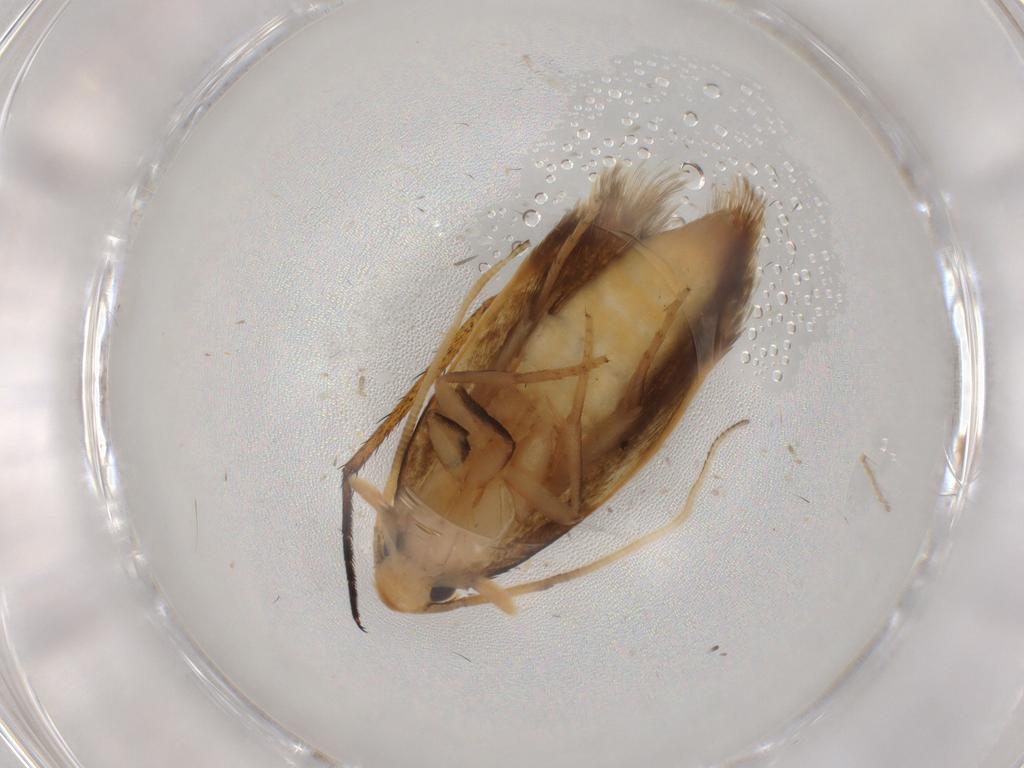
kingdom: Animalia
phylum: Arthropoda
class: Insecta
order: Lepidoptera
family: Tineidae
